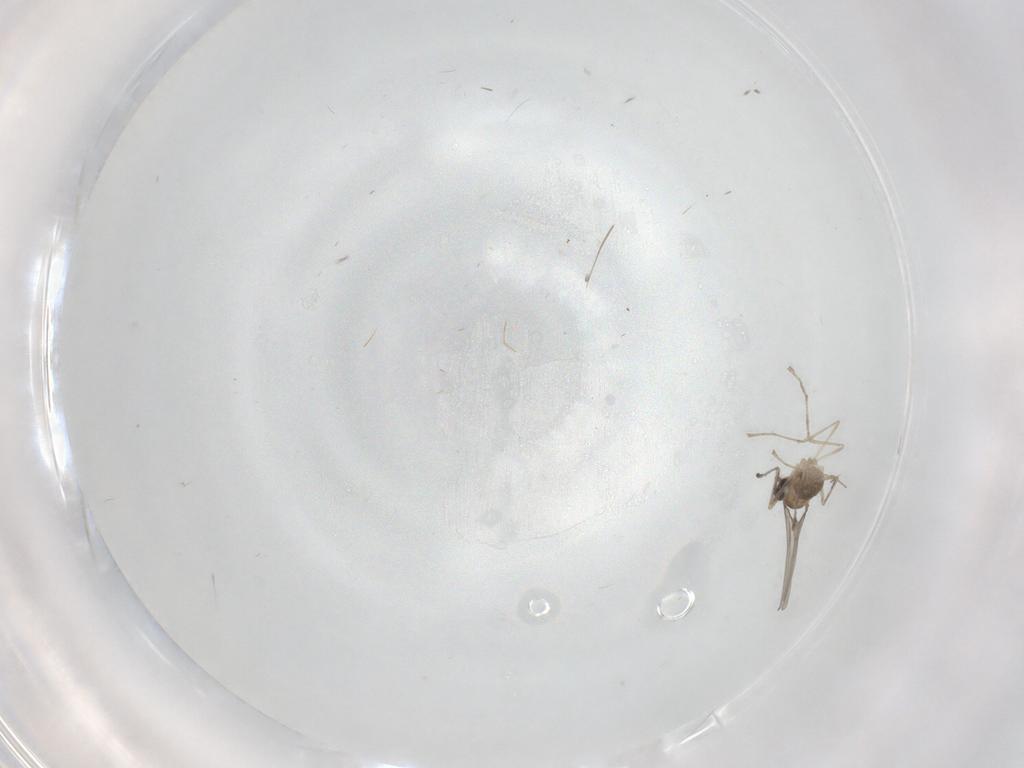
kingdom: Animalia
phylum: Arthropoda
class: Insecta
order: Diptera
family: Cecidomyiidae
